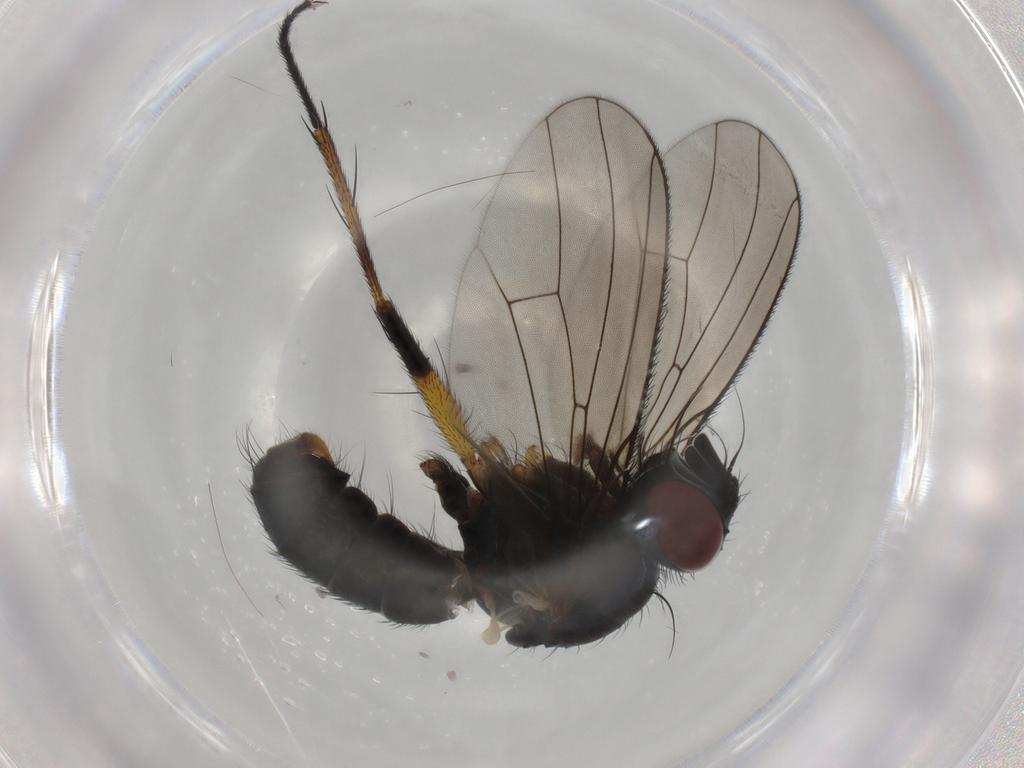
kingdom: Animalia
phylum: Arthropoda
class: Insecta
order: Diptera
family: Muscidae
